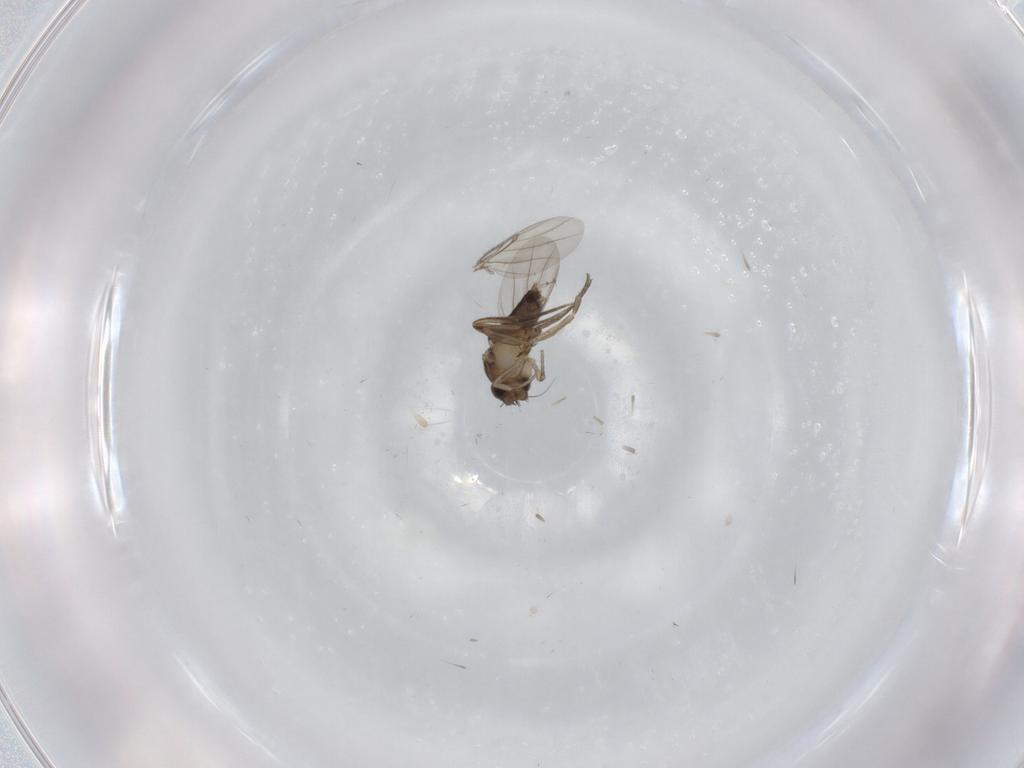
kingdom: Animalia
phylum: Arthropoda
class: Insecta
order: Diptera
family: Phoridae
